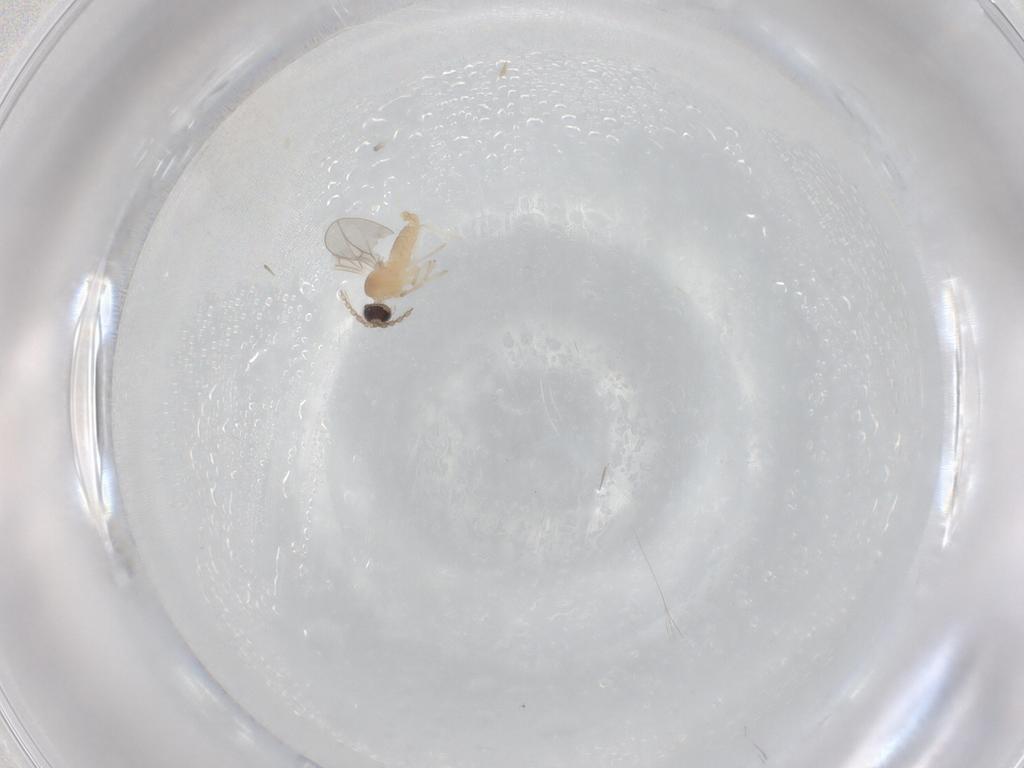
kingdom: Animalia
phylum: Arthropoda
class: Insecta
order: Diptera
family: Cecidomyiidae
